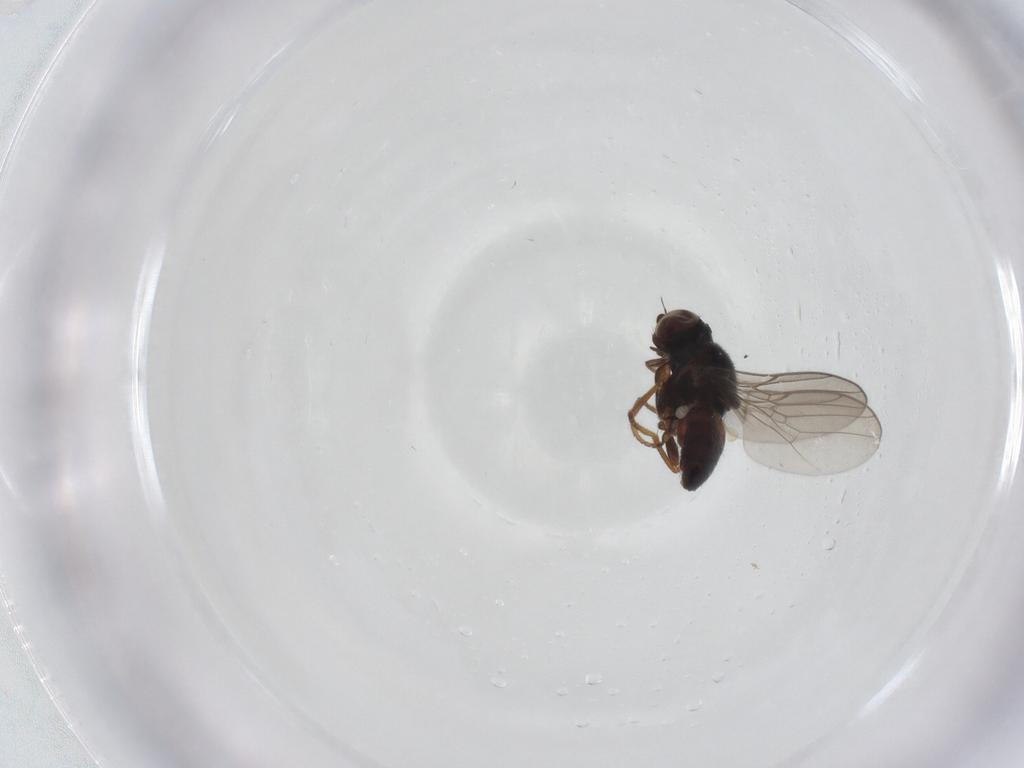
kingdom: Animalia
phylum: Arthropoda
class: Insecta
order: Diptera
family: Chloropidae
